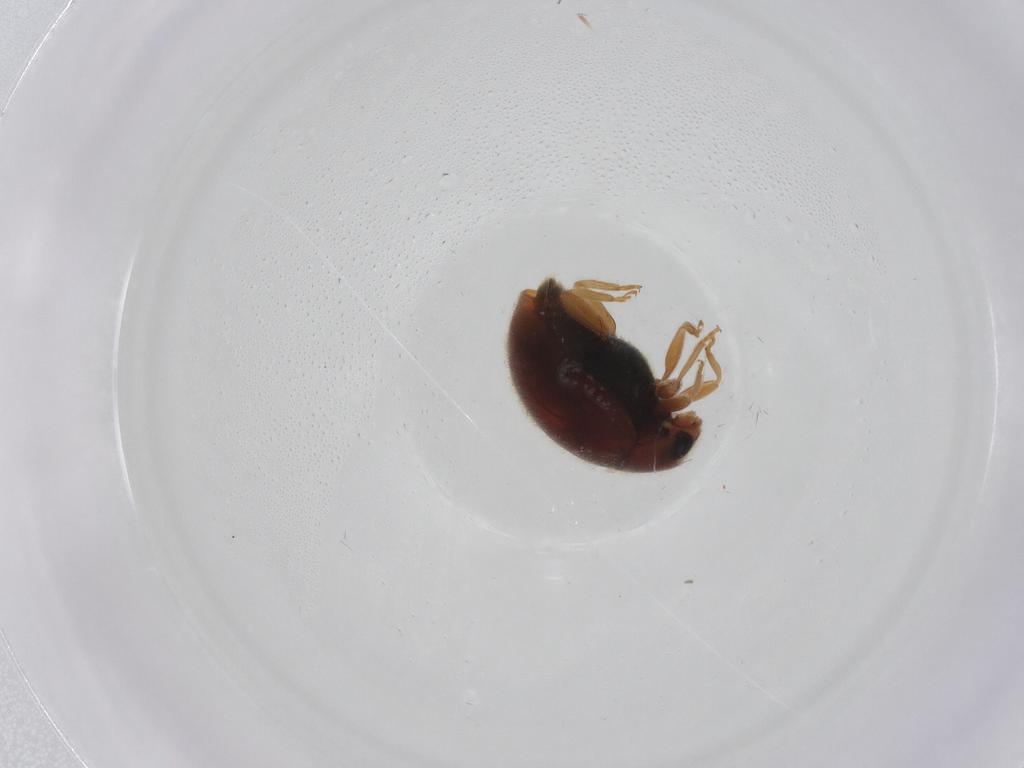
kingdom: Animalia
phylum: Arthropoda
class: Insecta
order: Coleoptera
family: Coccinellidae
